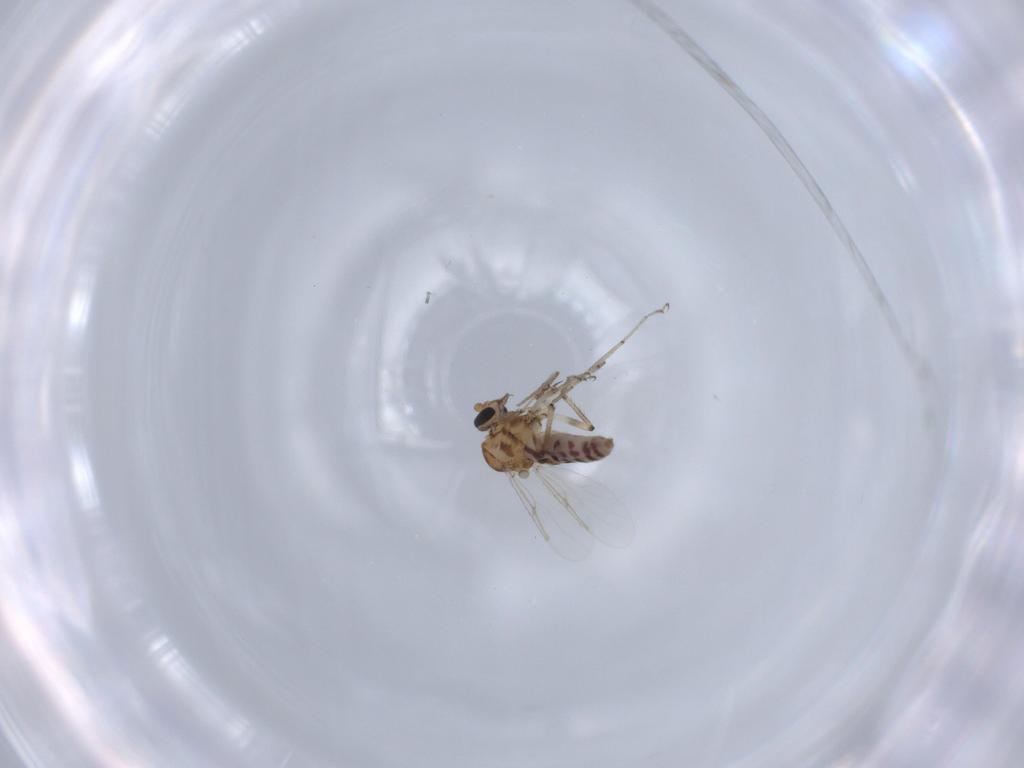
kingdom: Animalia
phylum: Arthropoda
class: Insecta
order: Diptera
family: Ceratopogonidae
